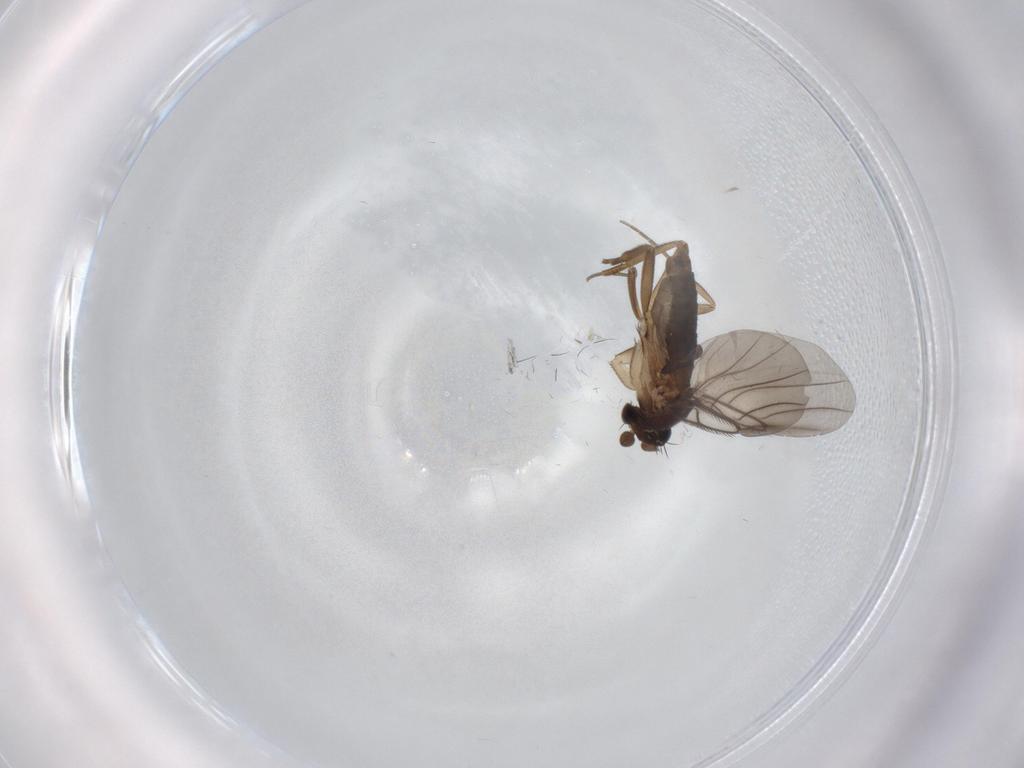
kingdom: Animalia
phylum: Arthropoda
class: Insecta
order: Diptera
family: Phoridae
